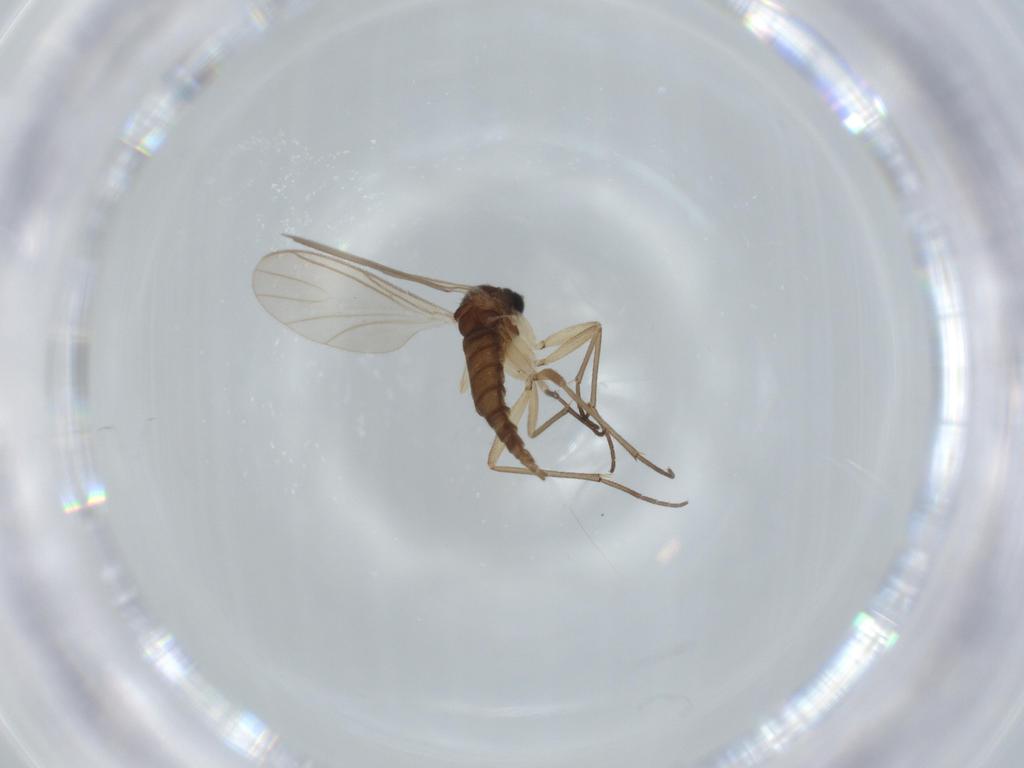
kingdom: Animalia
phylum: Arthropoda
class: Insecta
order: Diptera
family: Sciaridae
